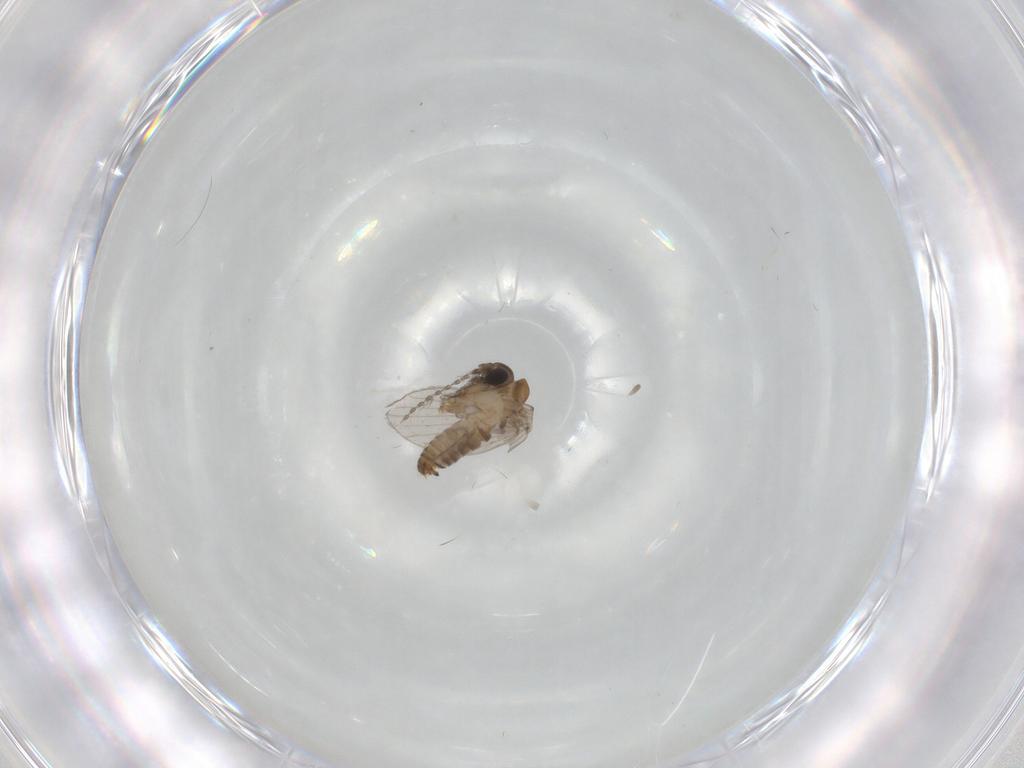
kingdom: Animalia
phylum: Arthropoda
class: Insecta
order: Diptera
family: Psychodidae
